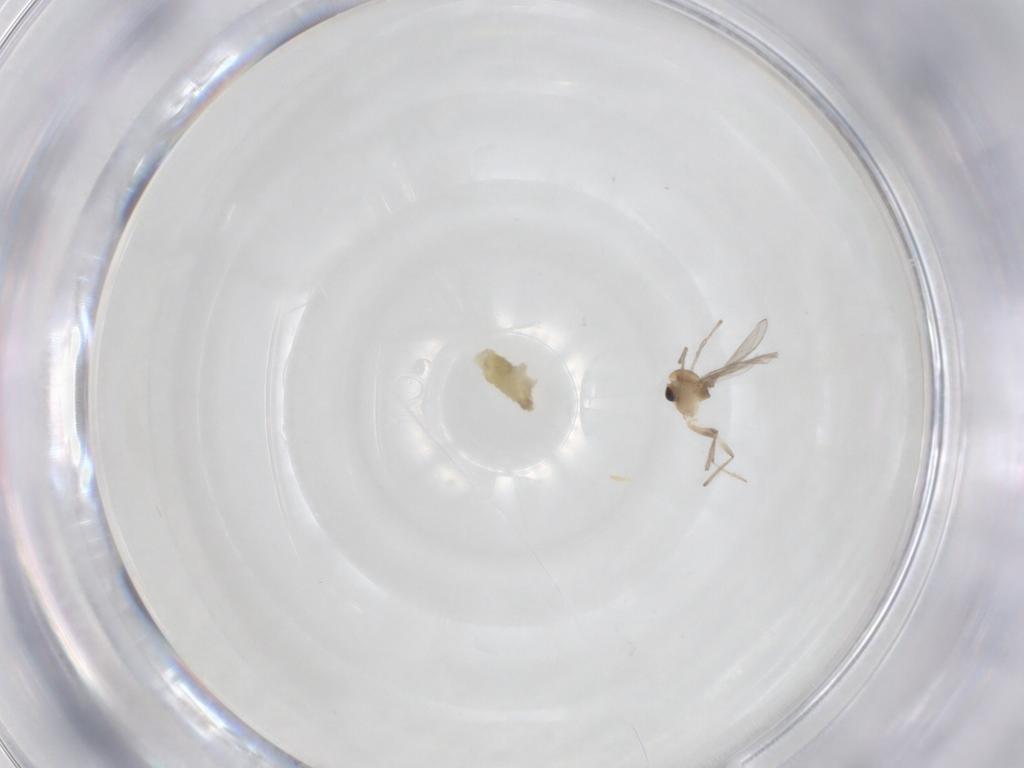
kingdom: Animalia
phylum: Arthropoda
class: Insecta
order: Diptera
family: Chironomidae
